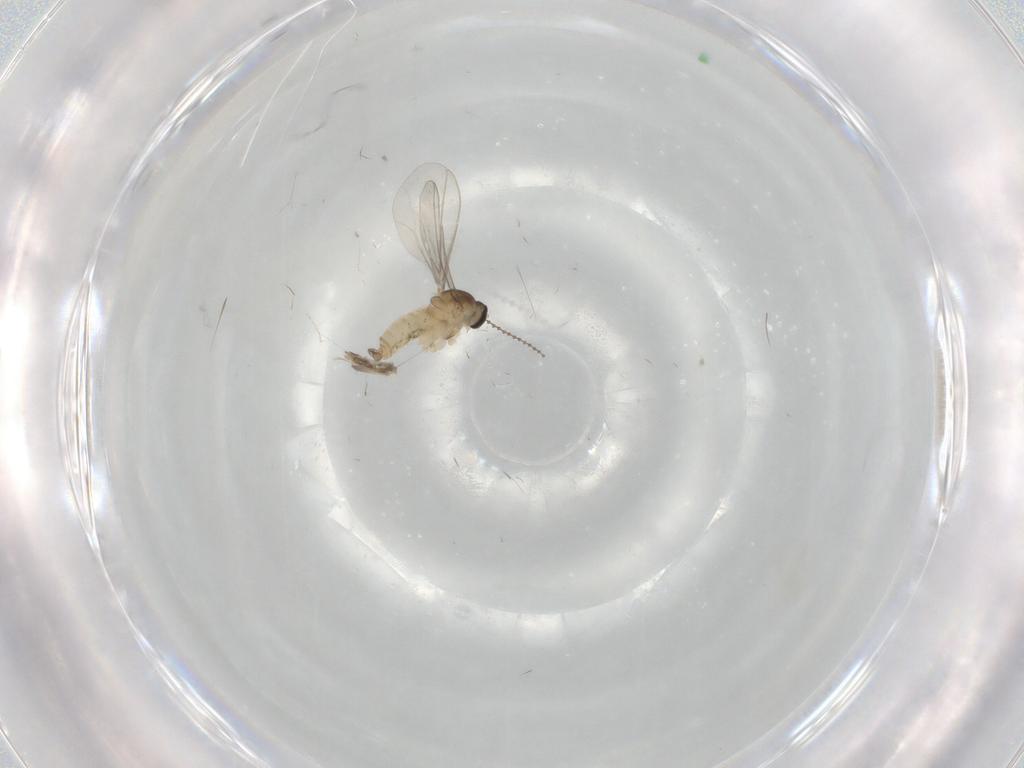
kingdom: Animalia
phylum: Arthropoda
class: Insecta
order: Diptera
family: Cecidomyiidae
